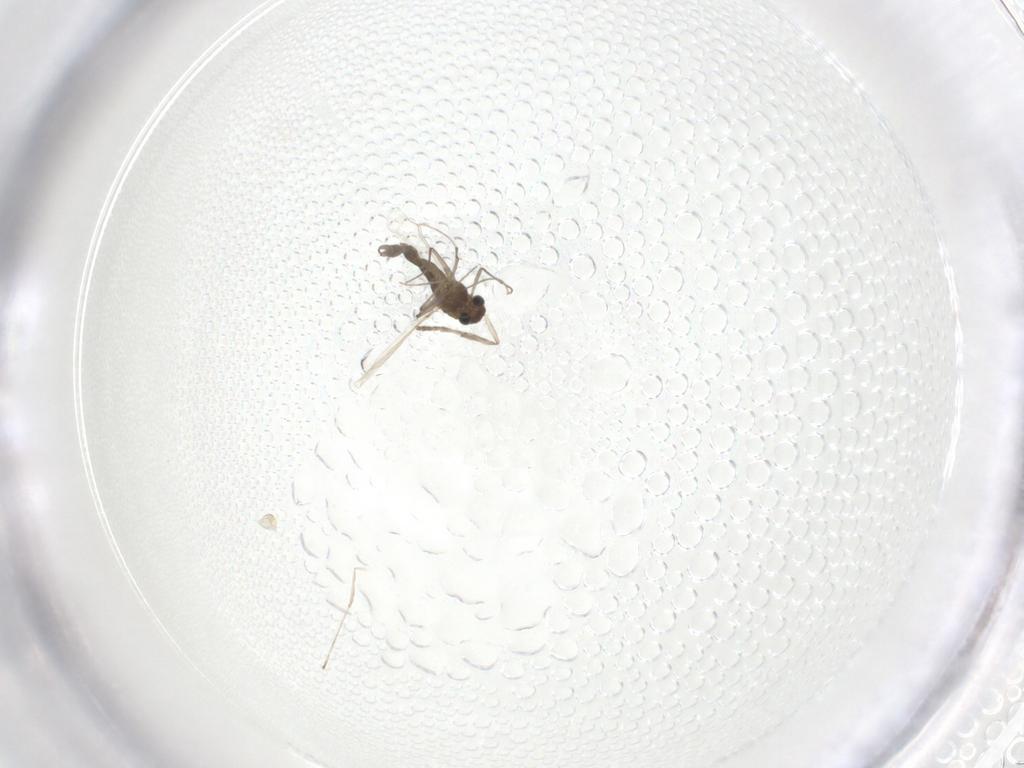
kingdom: Animalia
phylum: Arthropoda
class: Insecta
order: Diptera
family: Psychodidae
